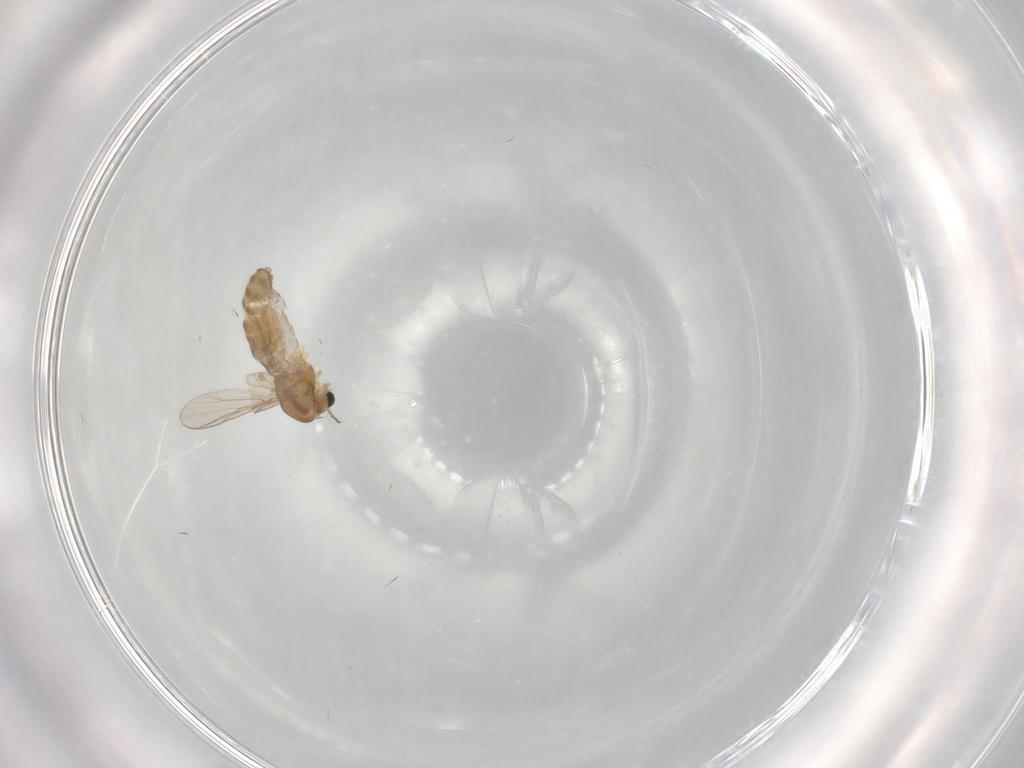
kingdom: Animalia
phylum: Arthropoda
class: Insecta
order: Diptera
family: Chironomidae
